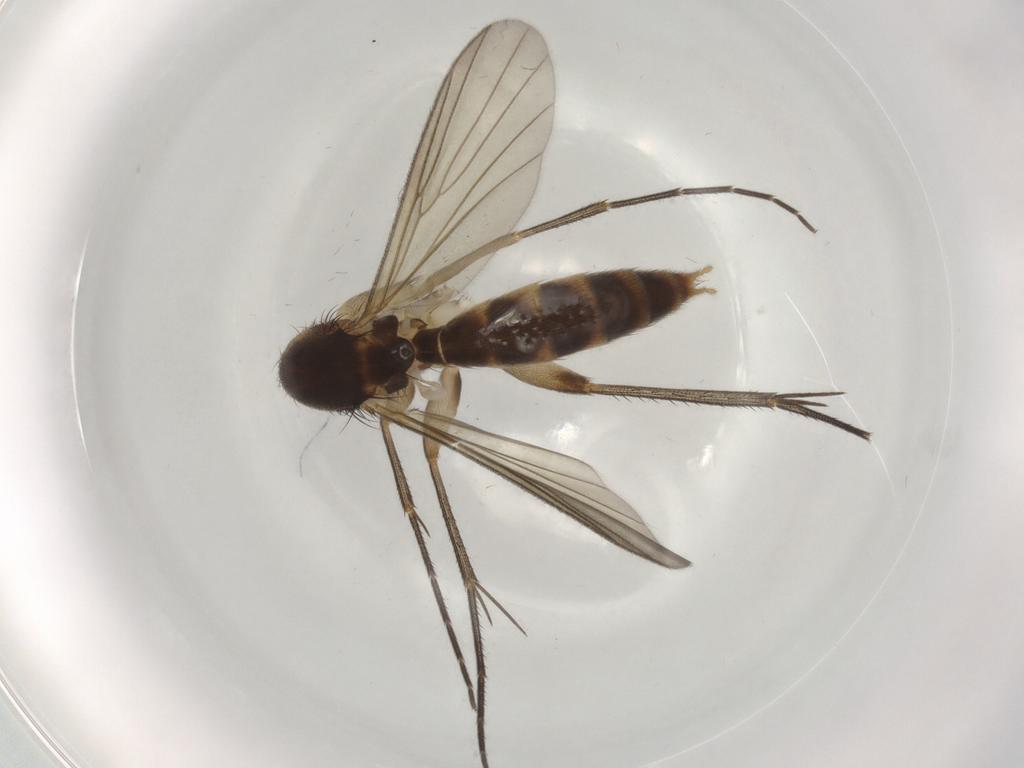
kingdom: Animalia
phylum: Arthropoda
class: Insecta
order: Diptera
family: Mycetophilidae
